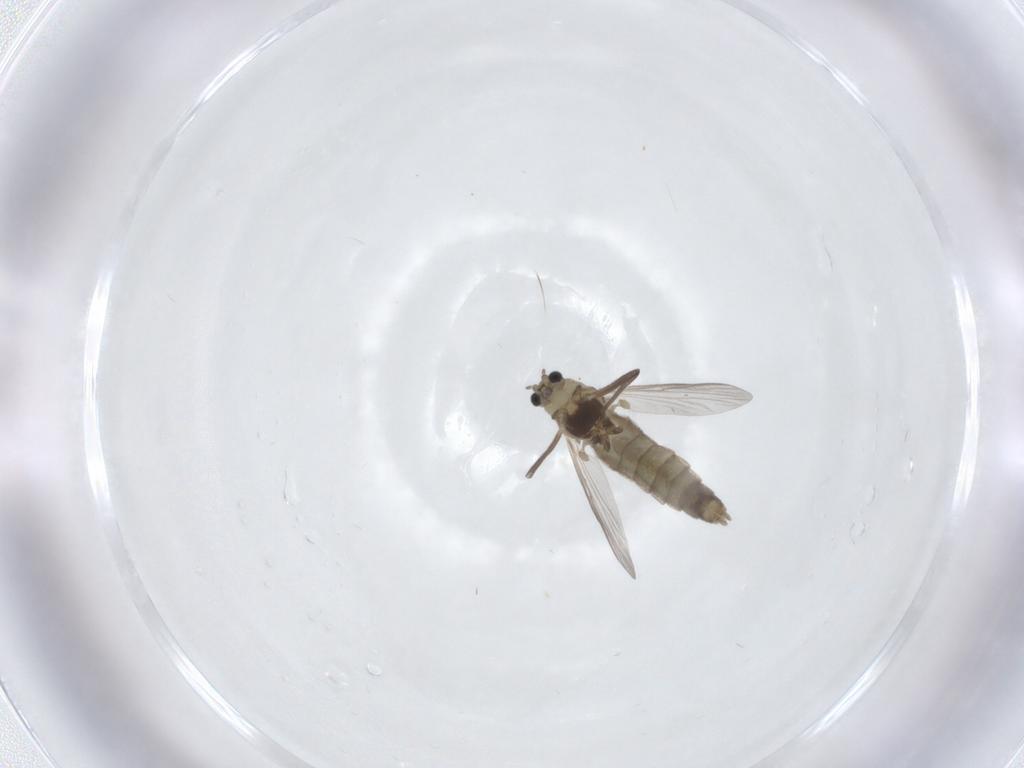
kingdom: Animalia
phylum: Arthropoda
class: Insecta
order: Diptera
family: Chironomidae
